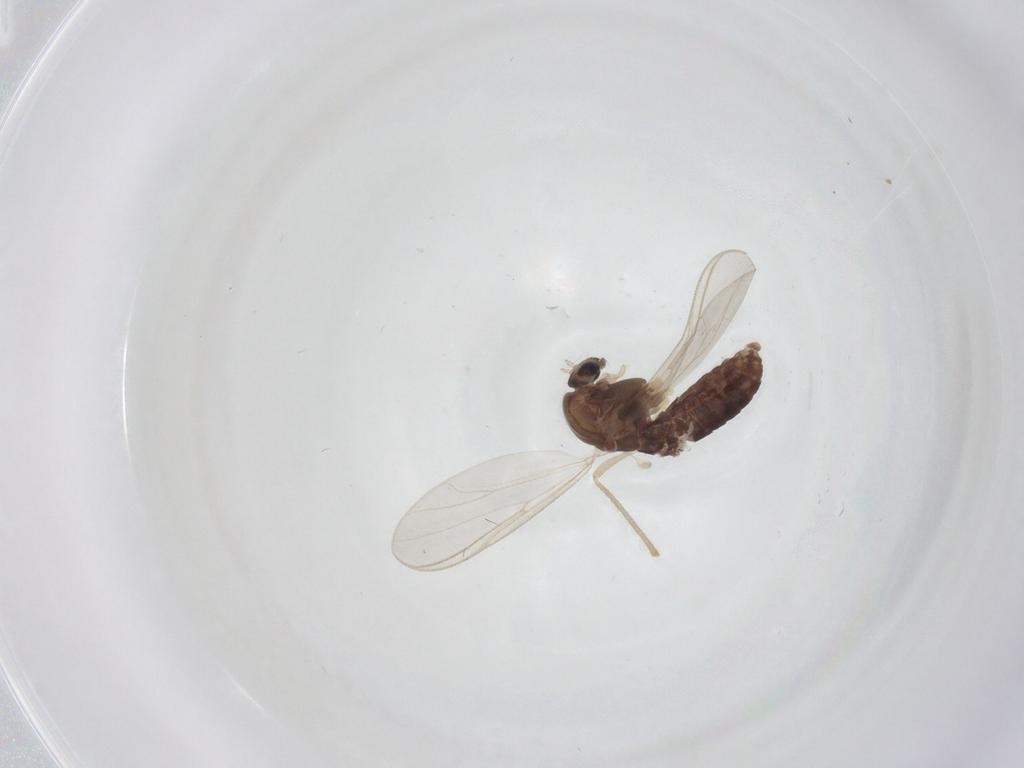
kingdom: Animalia
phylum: Arthropoda
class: Insecta
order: Diptera
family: Chironomidae
